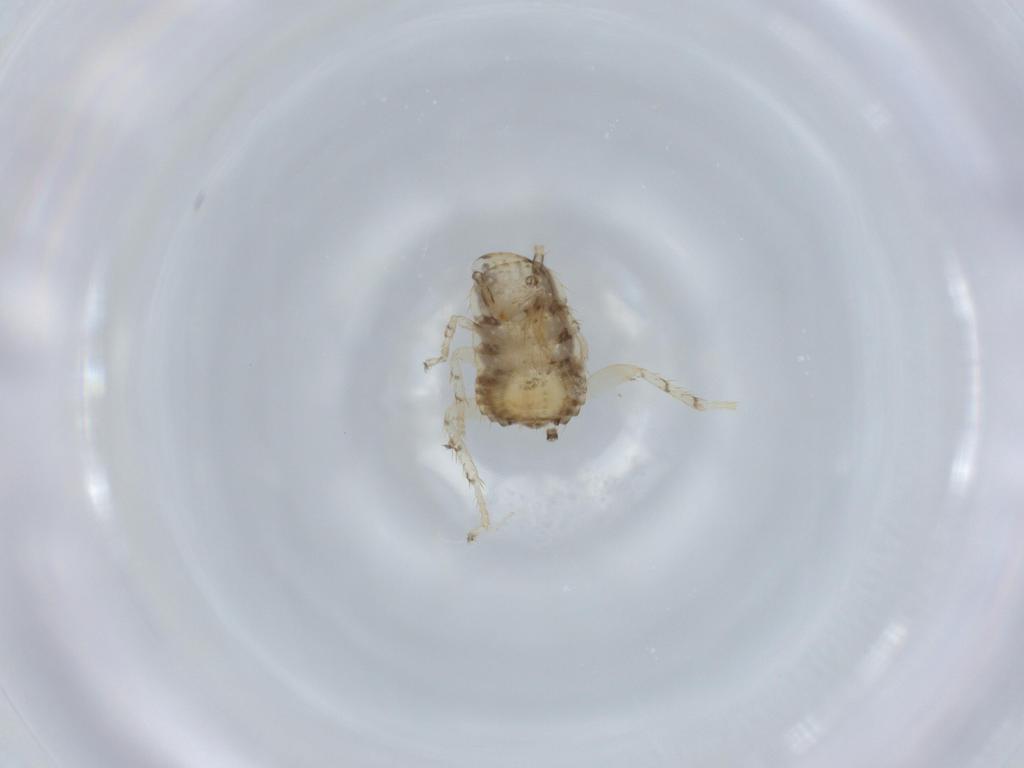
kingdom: Animalia
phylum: Arthropoda
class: Insecta
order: Blattodea
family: Ectobiidae
